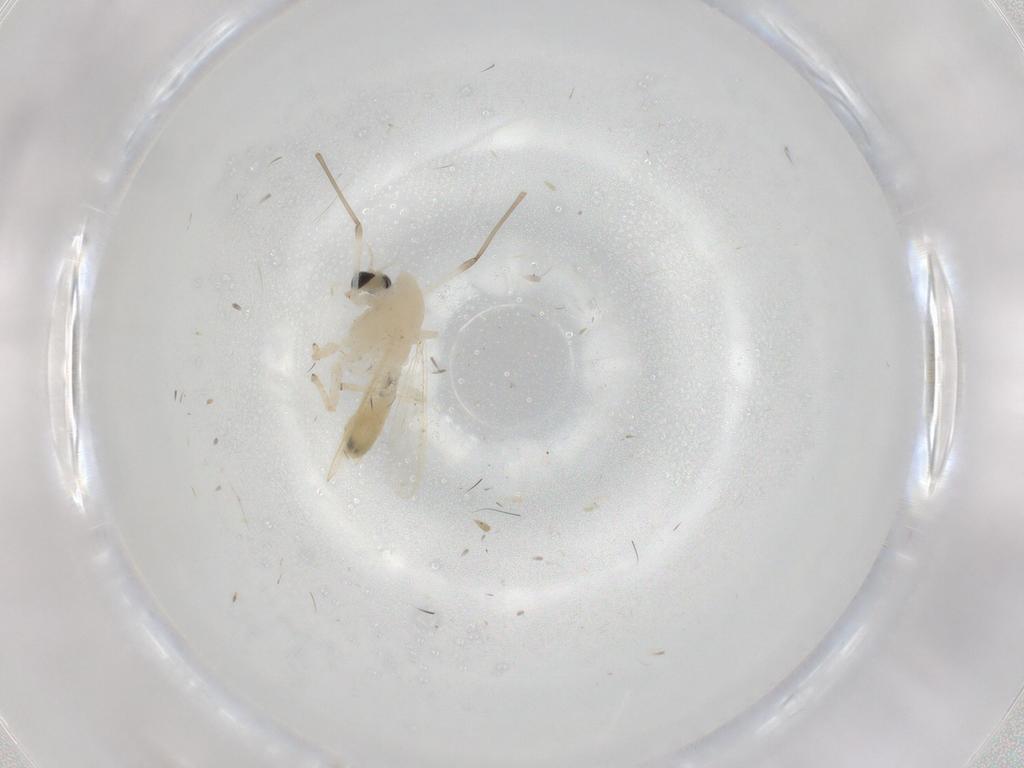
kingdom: Animalia
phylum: Arthropoda
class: Insecta
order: Diptera
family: Chironomidae
